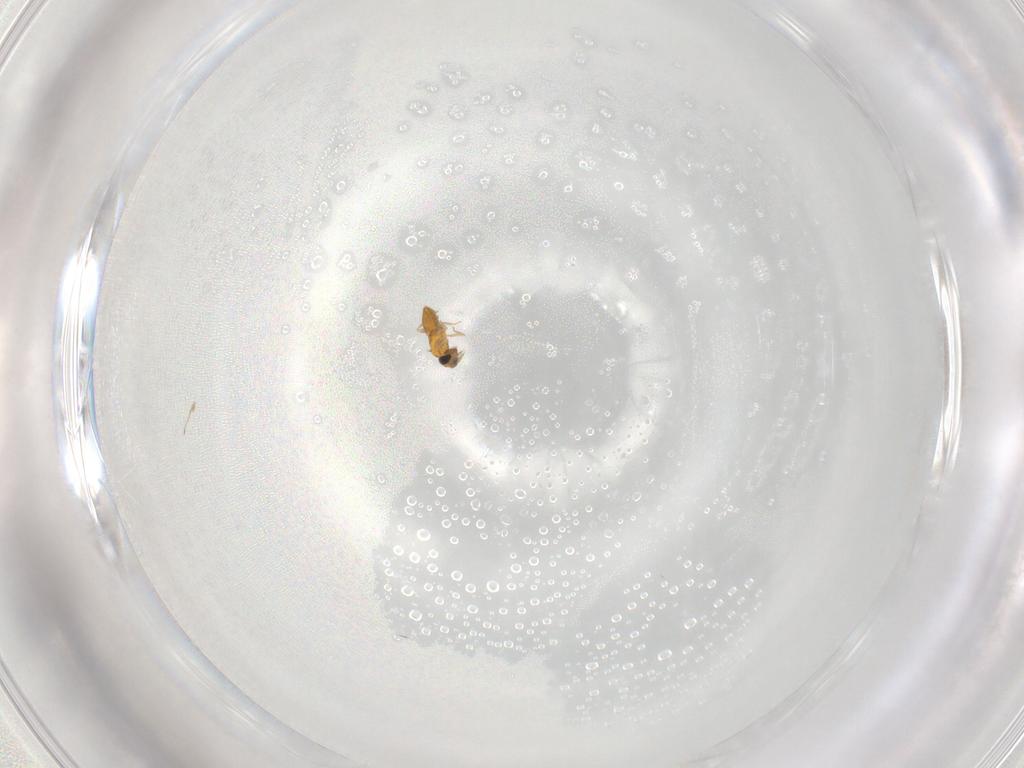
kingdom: Animalia
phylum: Arthropoda
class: Insecta
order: Hymenoptera
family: Trichogrammatidae
